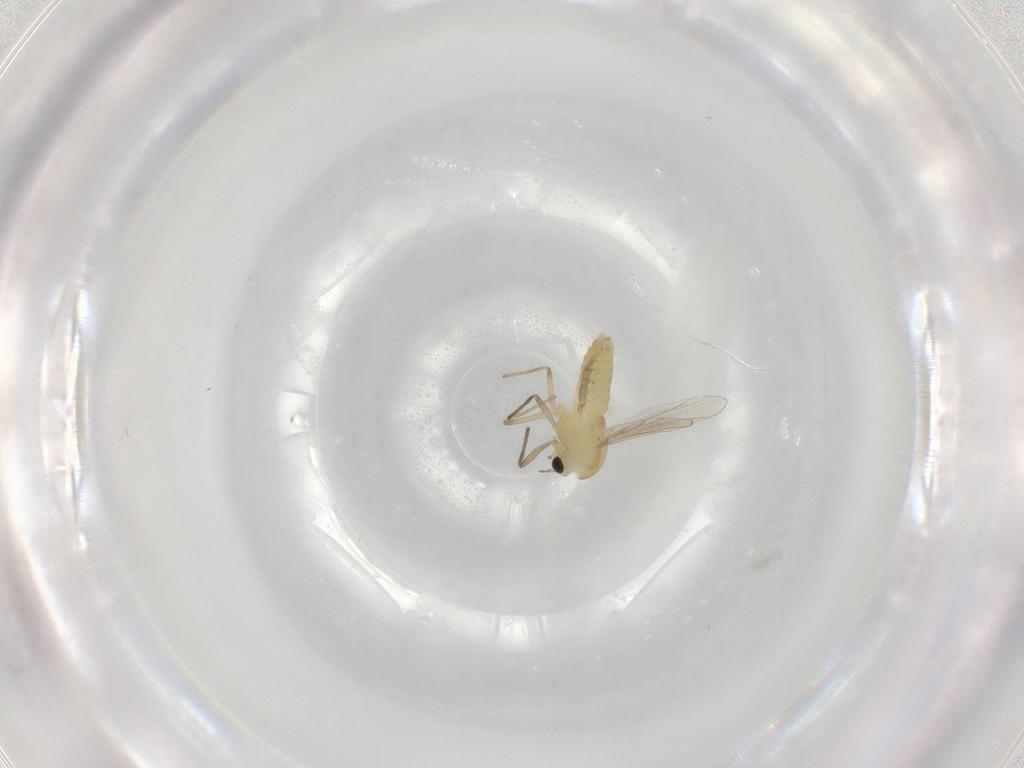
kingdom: Animalia
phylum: Arthropoda
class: Insecta
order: Diptera
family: Chironomidae
